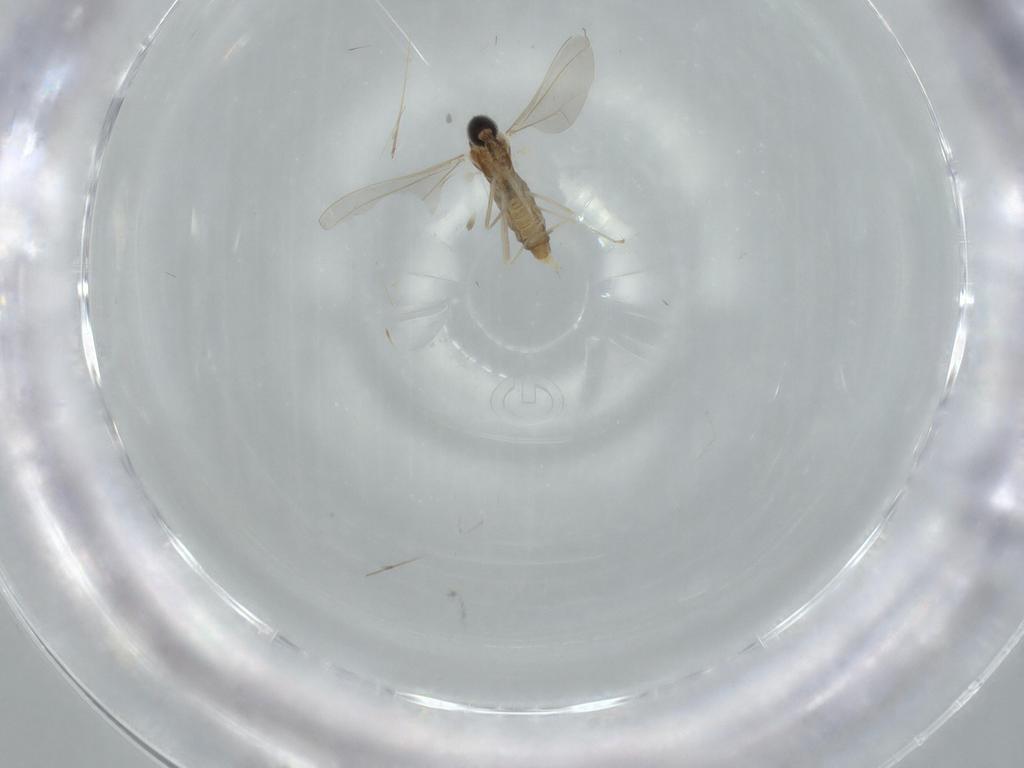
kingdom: Animalia
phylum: Arthropoda
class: Insecta
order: Diptera
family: Cecidomyiidae
